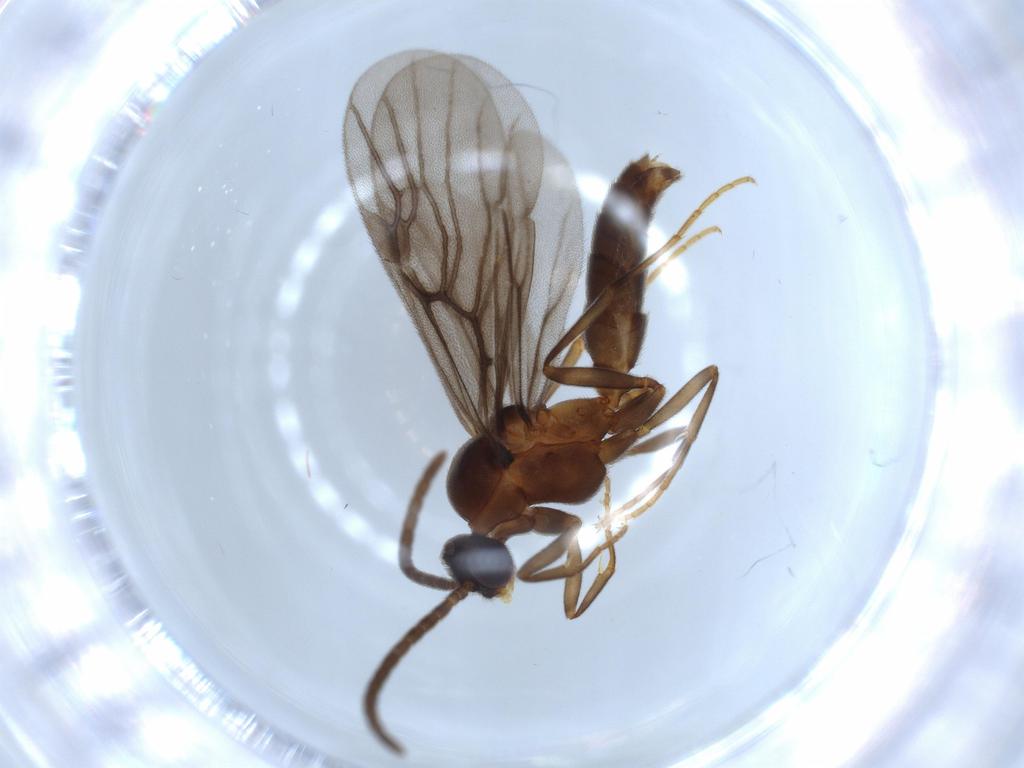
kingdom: Animalia
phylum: Arthropoda
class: Insecta
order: Hymenoptera
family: Formicidae
